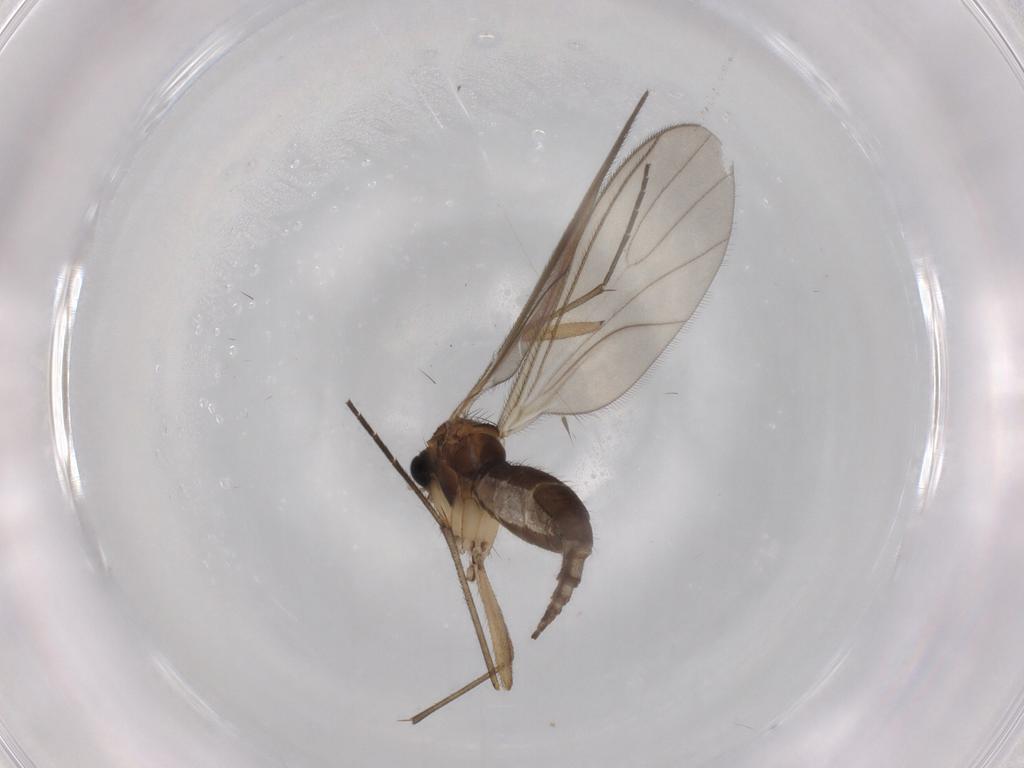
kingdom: Animalia
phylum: Arthropoda
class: Insecta
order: Diptera
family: Sciaridae
